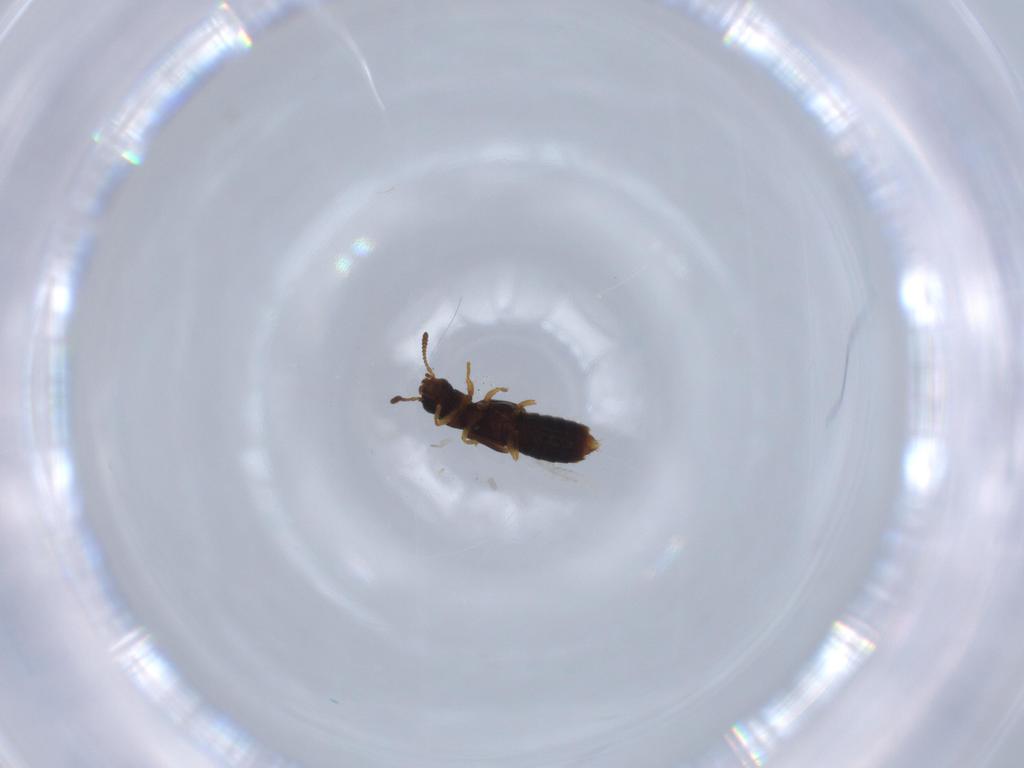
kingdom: Animalia
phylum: Arthropoda
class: Insecta
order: Coleoptera
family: Staphylinidae
